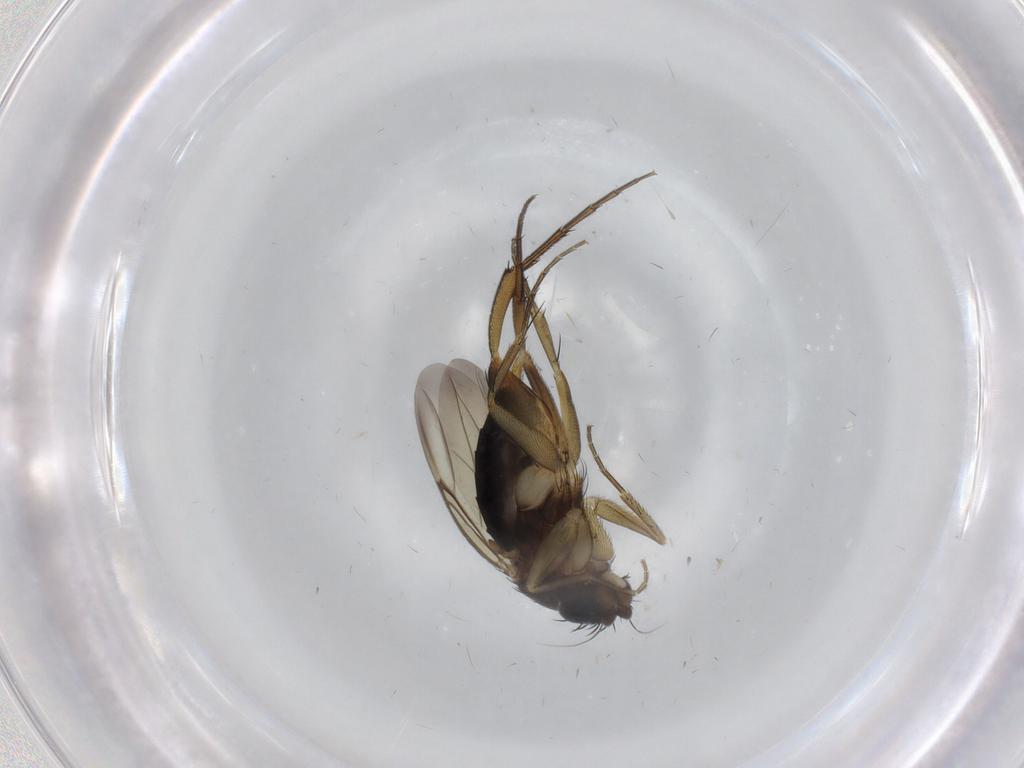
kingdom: Animalia
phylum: Arthropoda
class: Insecta
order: Diptera
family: Phoridae
